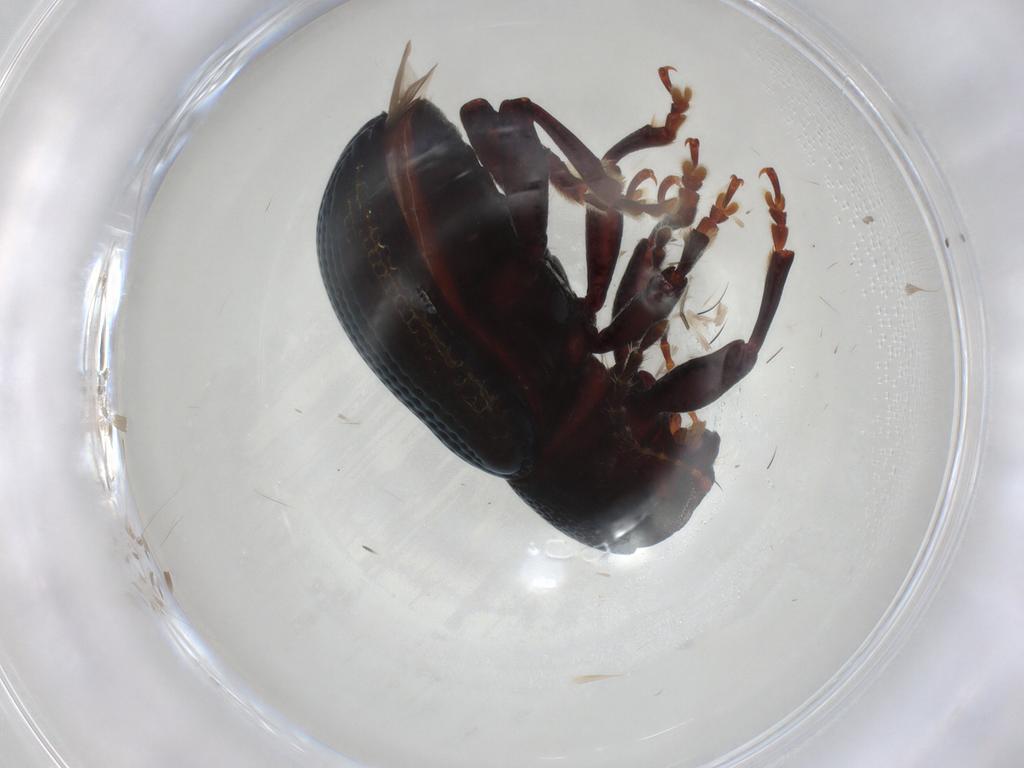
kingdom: Animalia
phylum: Arthropoda
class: Insecta
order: Coleoptera
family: Chrysomelidae
